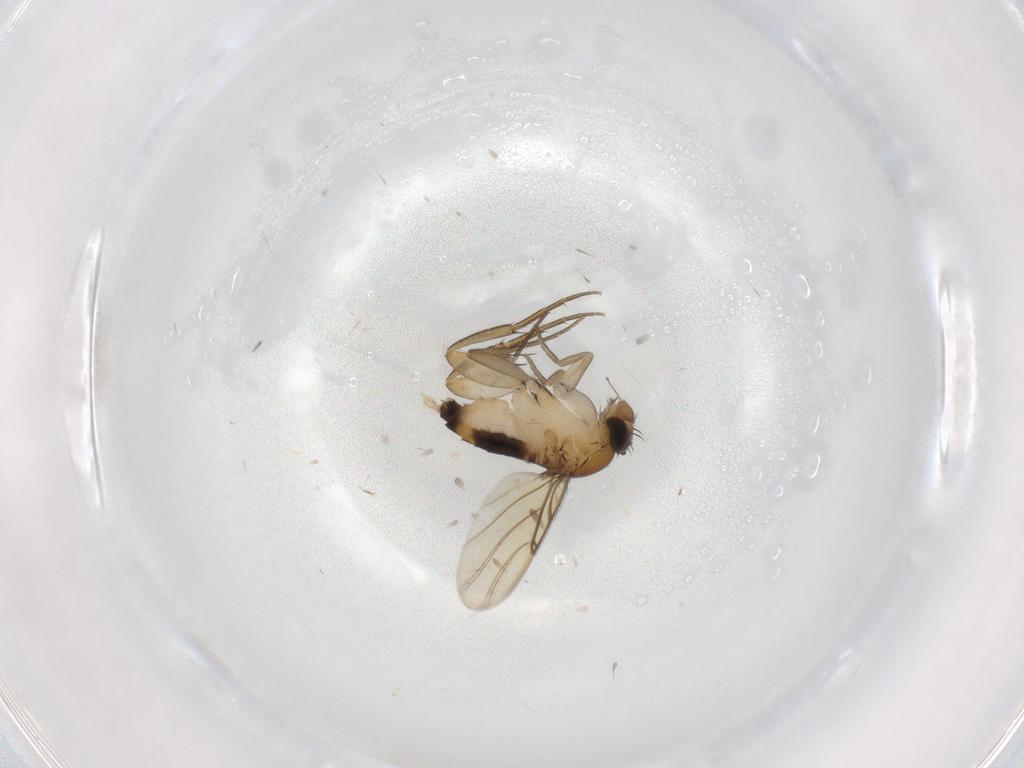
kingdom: Animalia
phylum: Arthropoda
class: Insecta
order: Diptera
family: Phoridae
